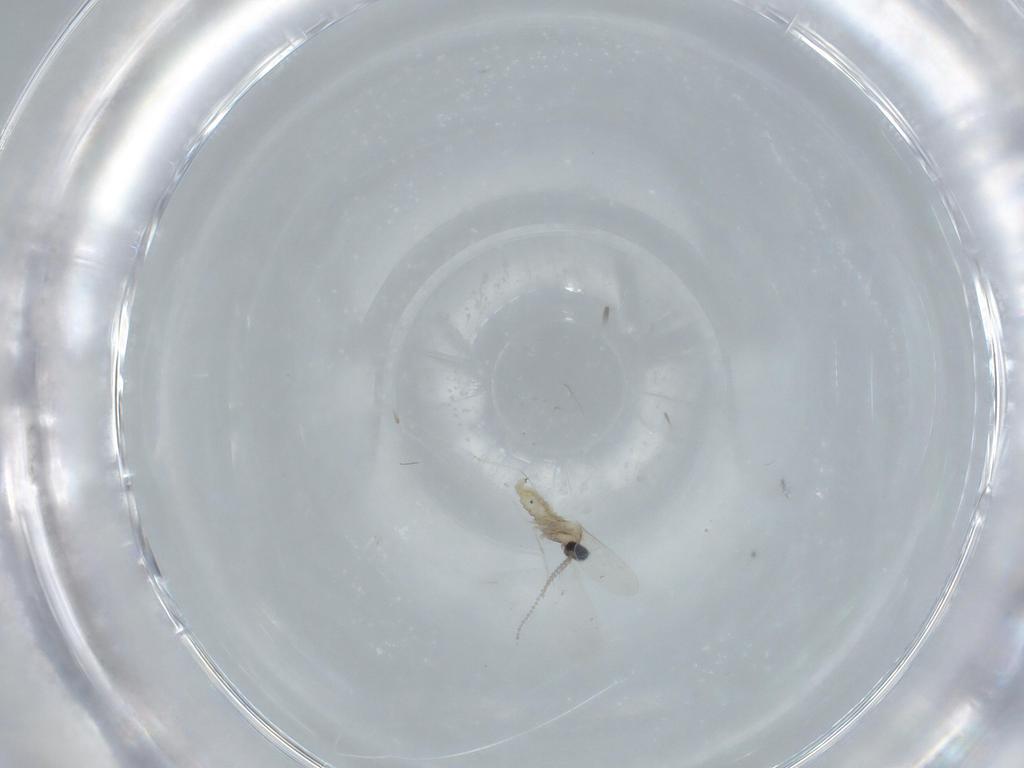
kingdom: Animalia
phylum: Arthropoda
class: Insecta
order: Diptera
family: Cecidomyiidae
